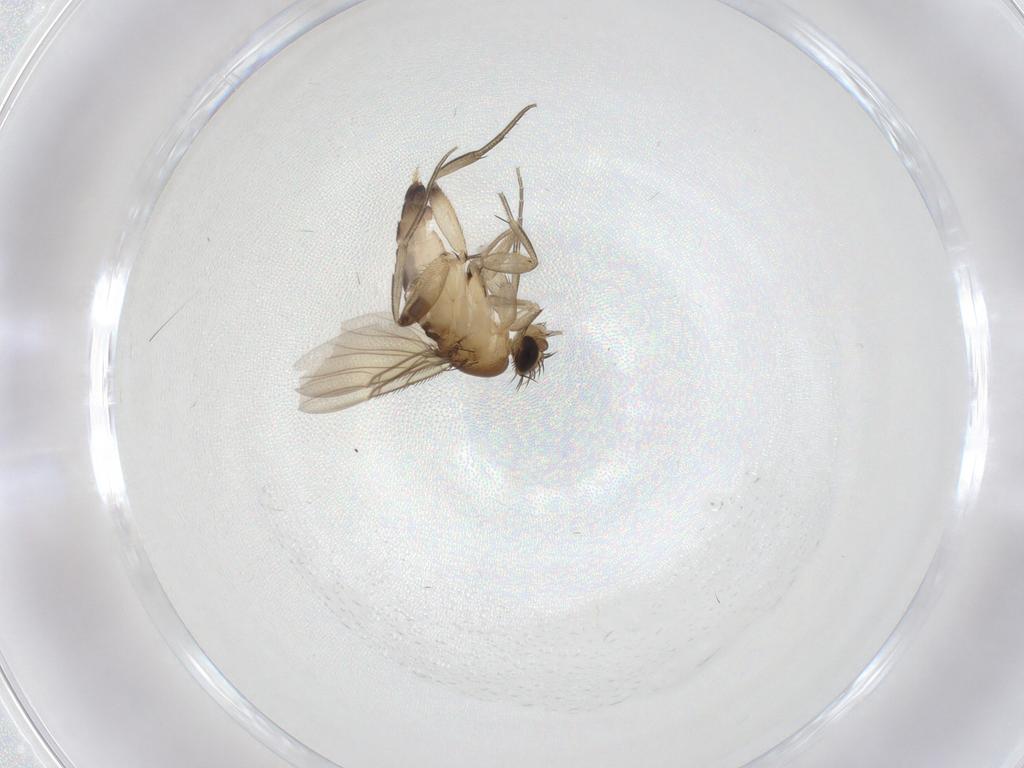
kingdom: Animalia
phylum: Arthropoda
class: Insecta
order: Diptera
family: Phoridae
